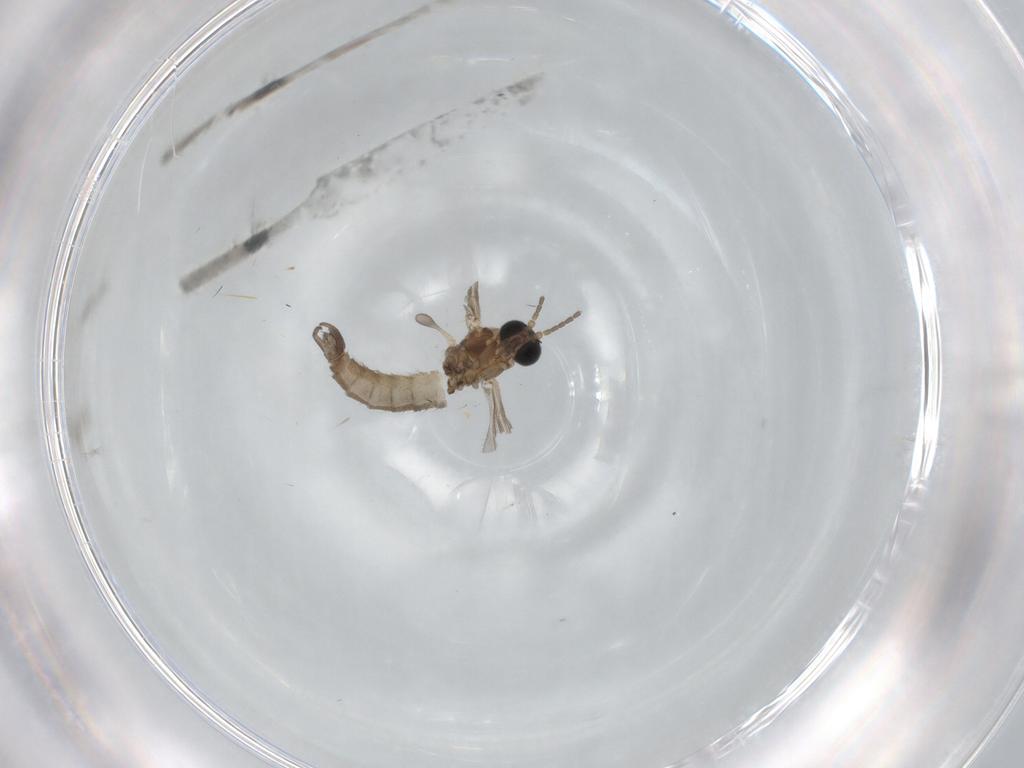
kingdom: Animalia
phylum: Arthropoda
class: Insecta
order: Diptera
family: Sciaridae
